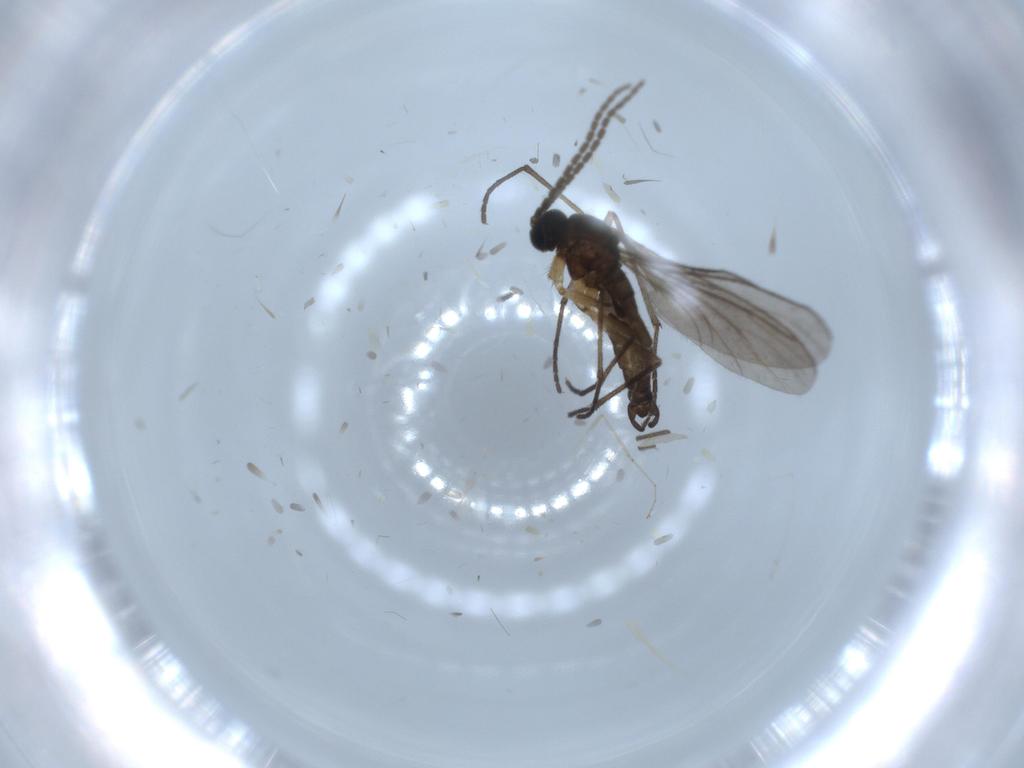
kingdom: Animalia
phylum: Arthropoda
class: Insecta
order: Diptera
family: Sciaridae
